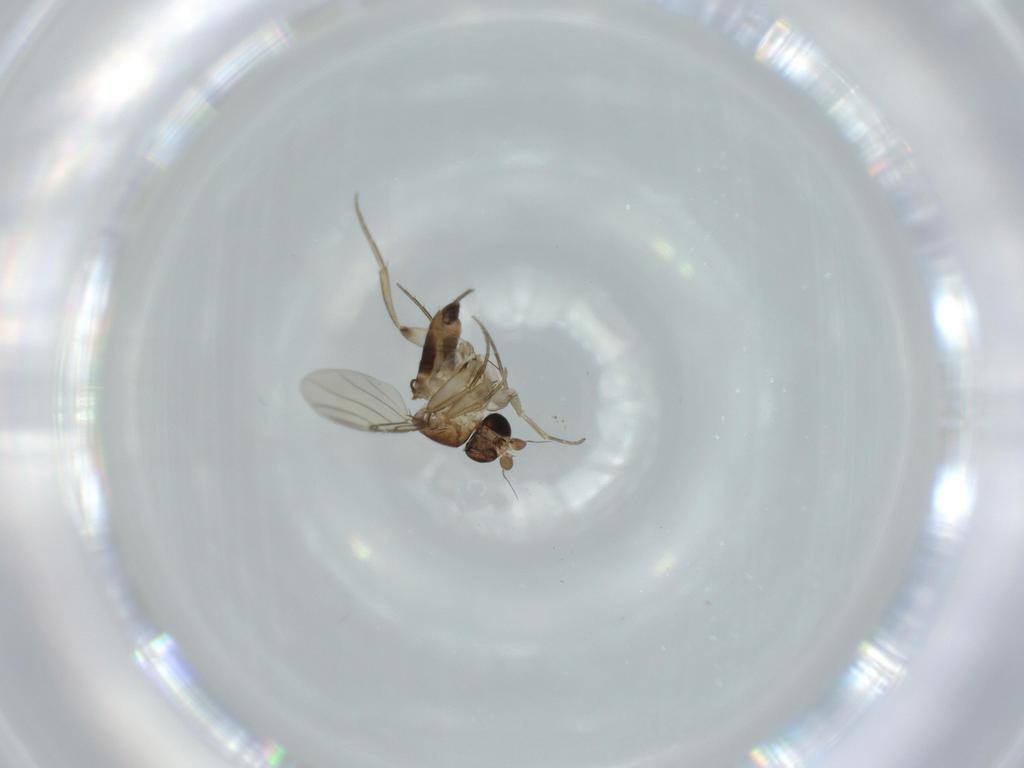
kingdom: Animalia
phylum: Arthropoda
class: Insecta
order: Diptera
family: Phoridae
